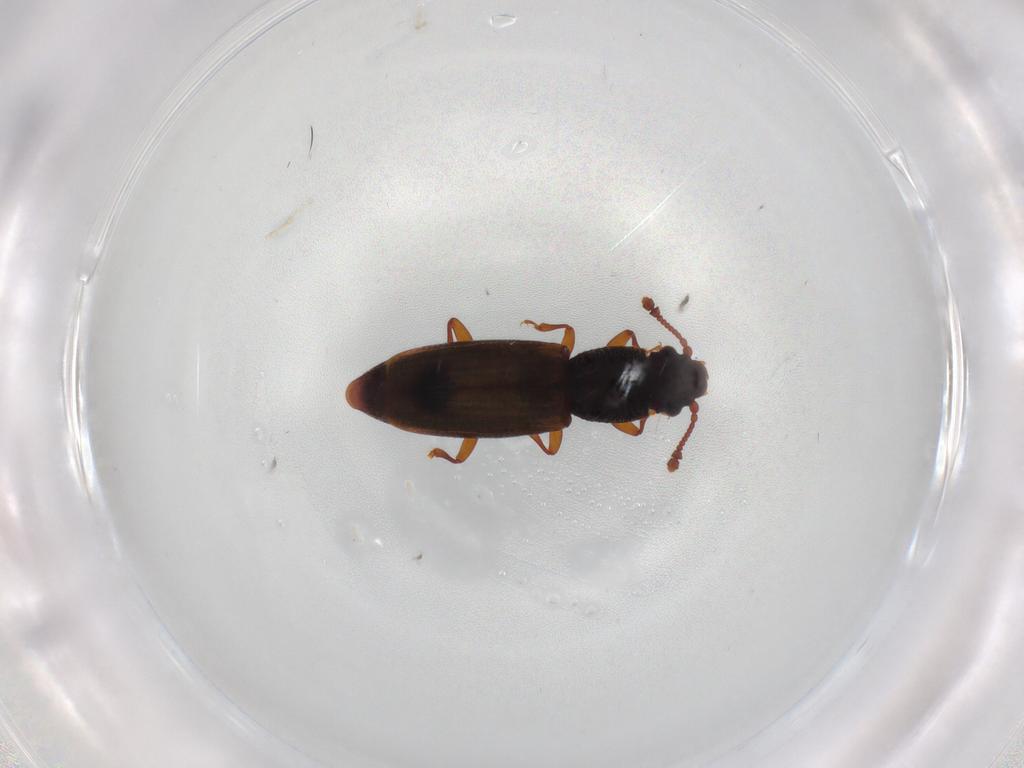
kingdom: Animalia
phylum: Arthropoda
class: Insecta
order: Coleoptera
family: Monotomidae
